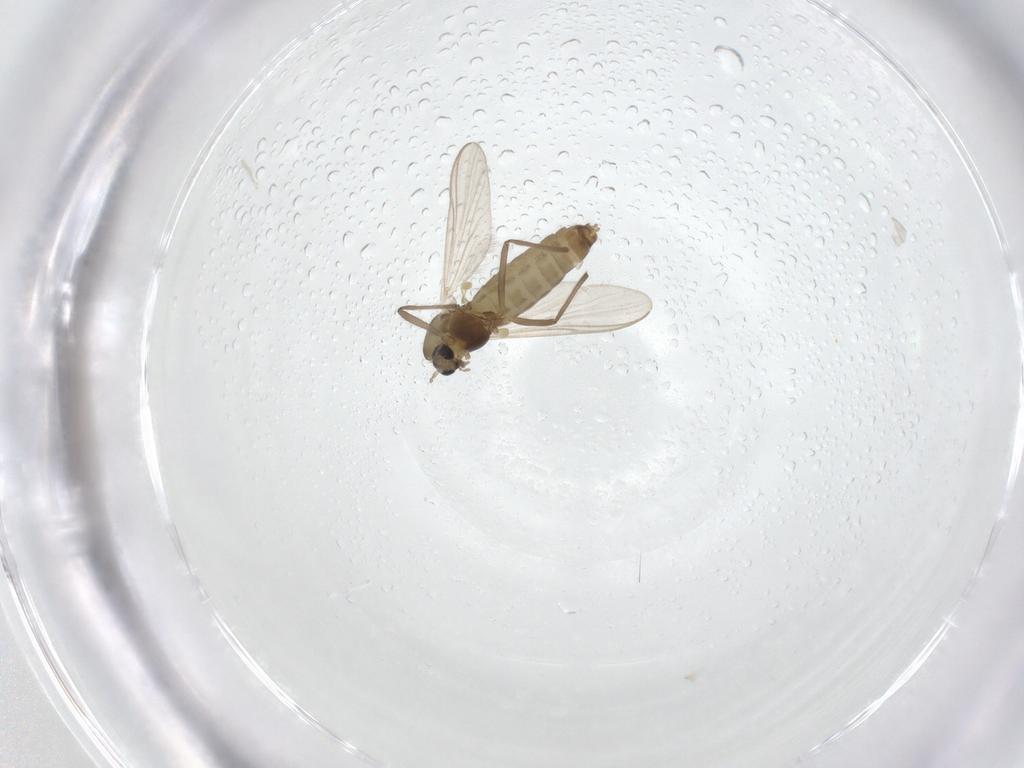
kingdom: Animalia
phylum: Arthropoda
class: Insecta
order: Diptera
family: Chironomidae
